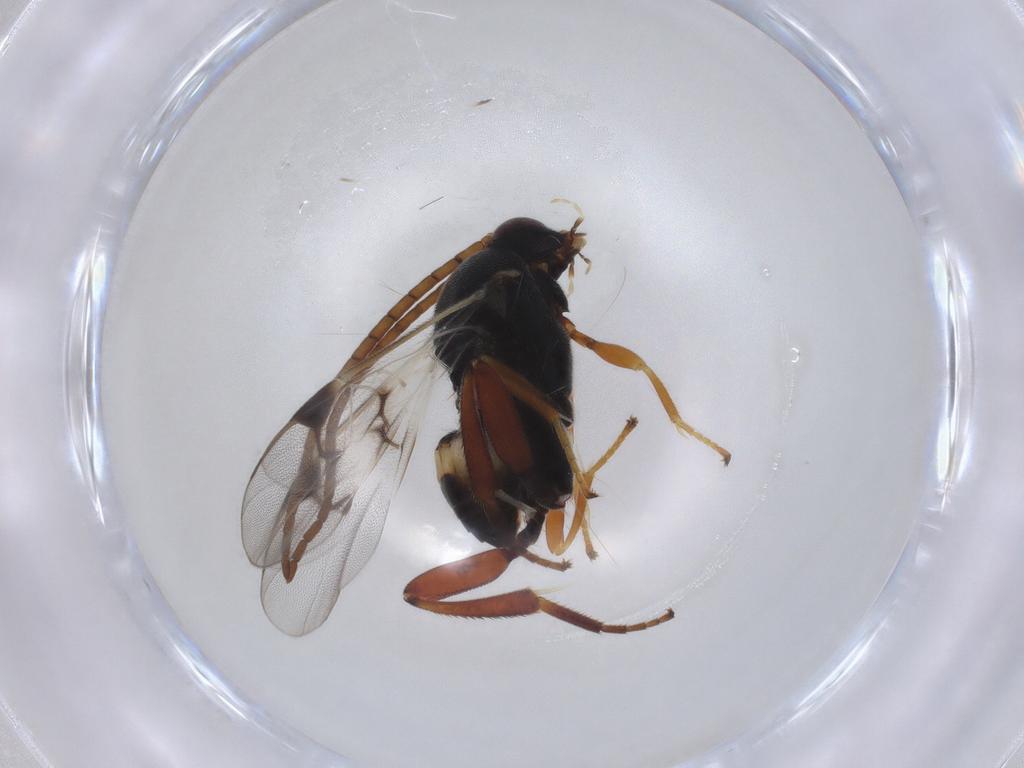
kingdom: Animalia
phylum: Arthropoda
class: Insecta
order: Hymenoptera
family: Braconidae
